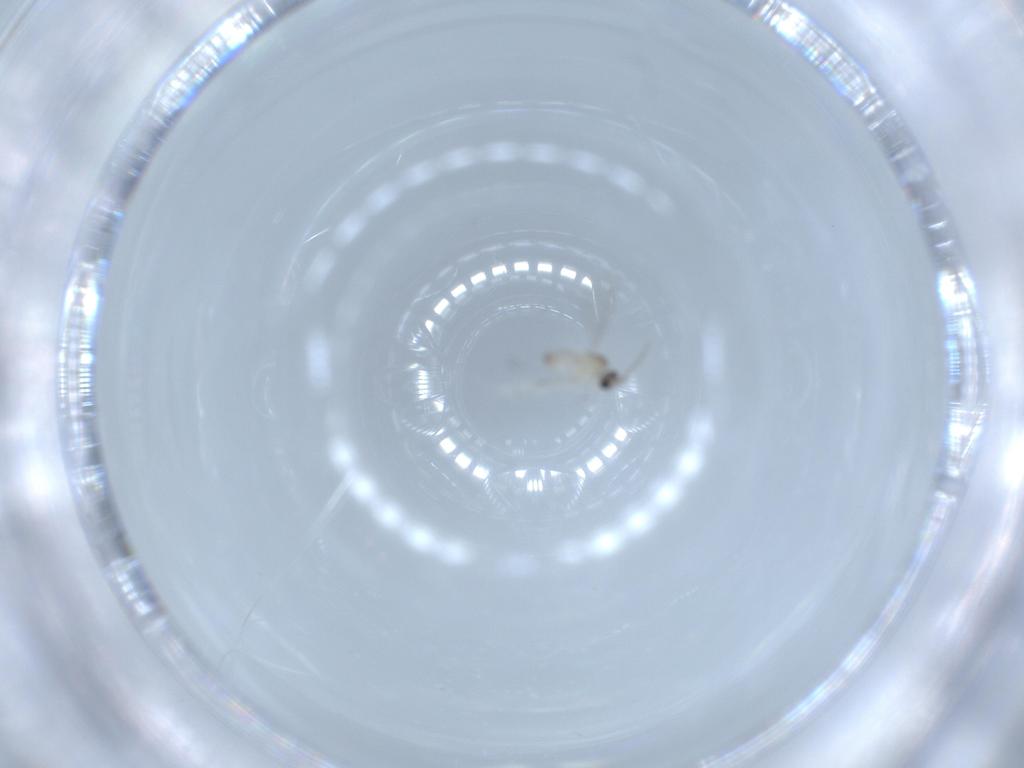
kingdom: Animalia
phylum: Arthropoda
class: Insecta
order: Diptera
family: Cecidomyiidae
